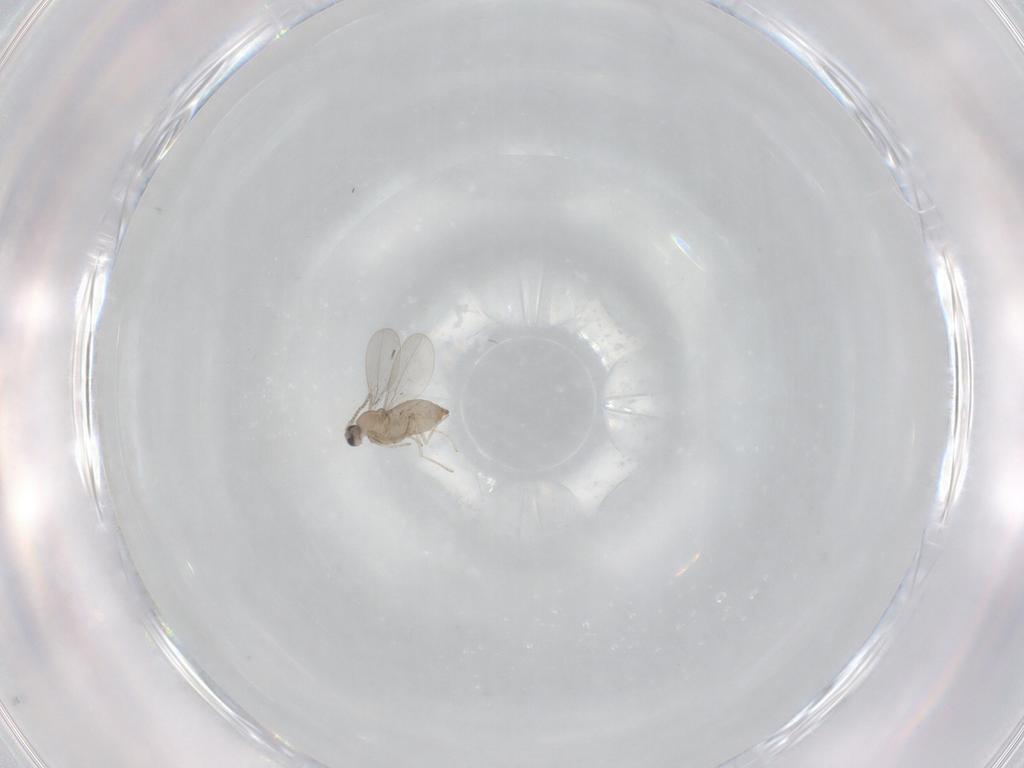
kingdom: Animalia
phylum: Arthropoda
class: Insecta
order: Diptera
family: Cecidomyiidae
